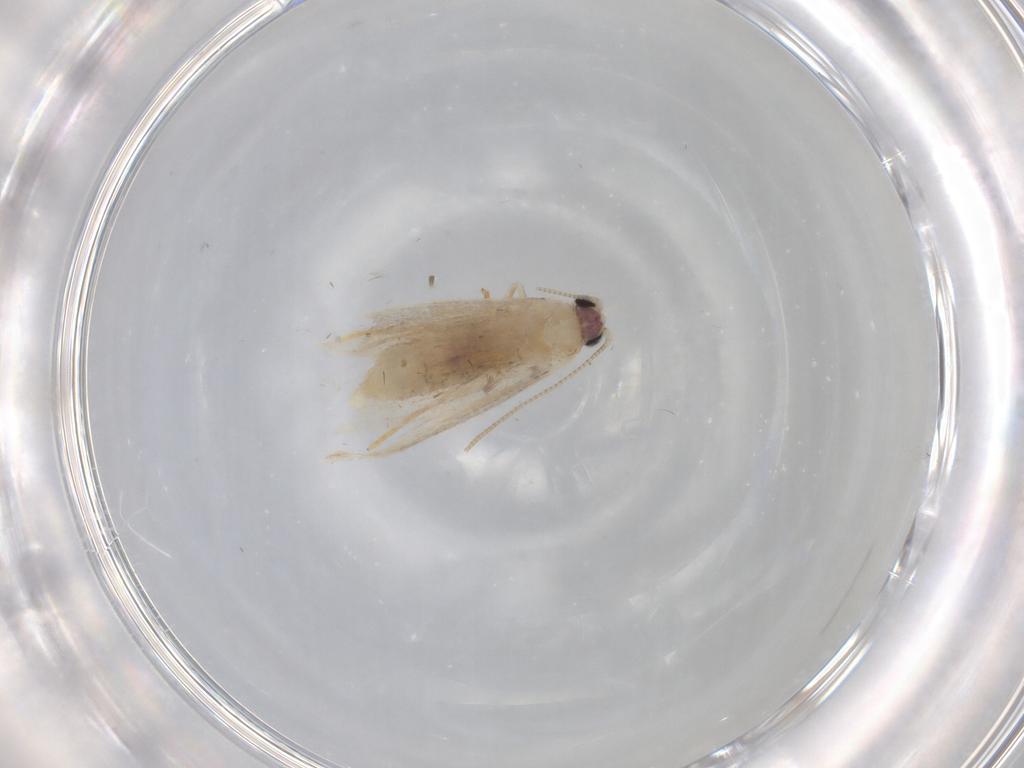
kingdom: Animalia
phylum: Arthropoda
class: Insecta
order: Lepidoptera
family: Nepticulidae
